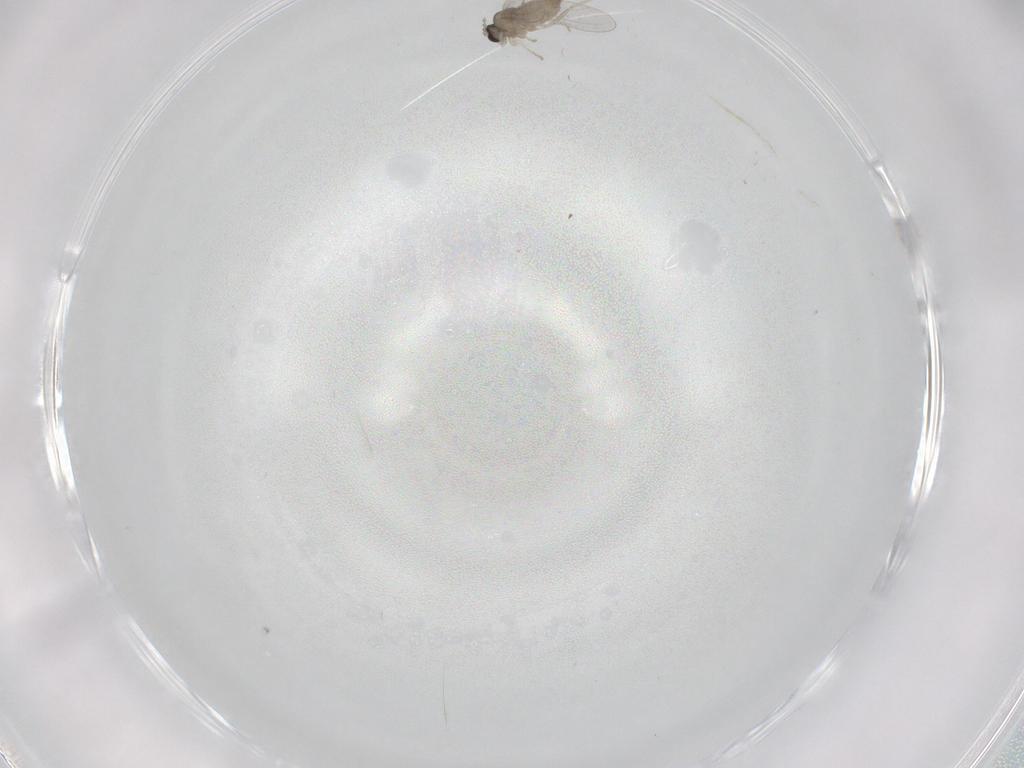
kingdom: Animalia
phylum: Arthropoda
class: Insecta
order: Diptera
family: Cecidomyiidae
